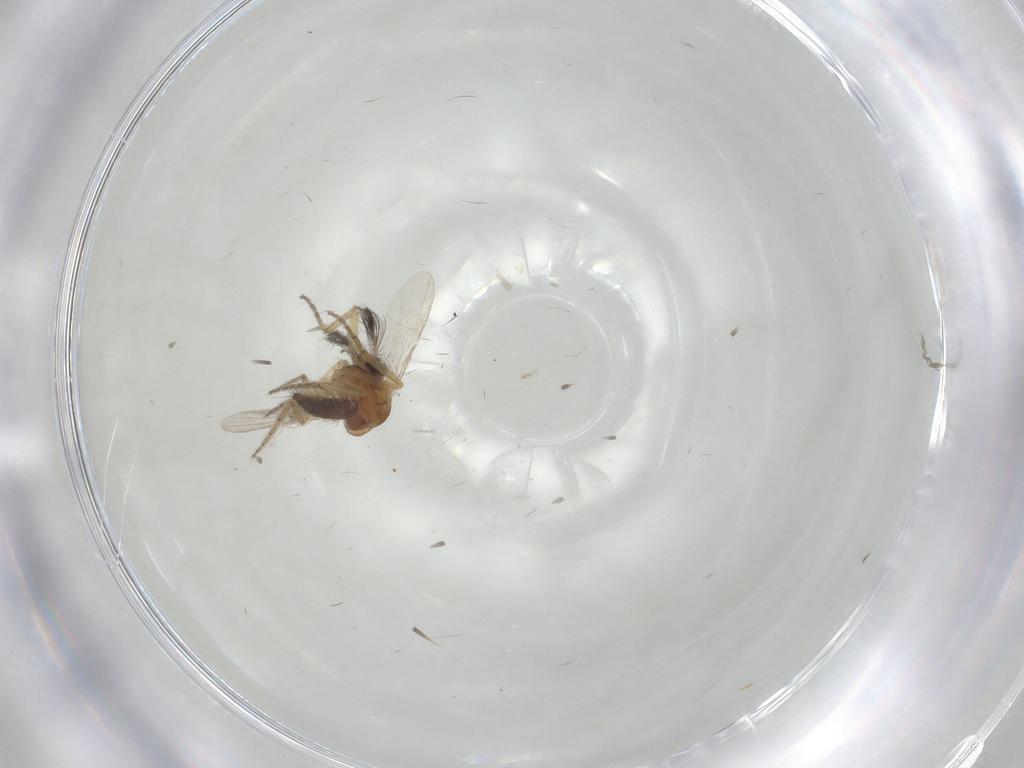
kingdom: Animalia
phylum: Arthropoda
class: Insecta
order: Diptera
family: Ceratopogonidae
